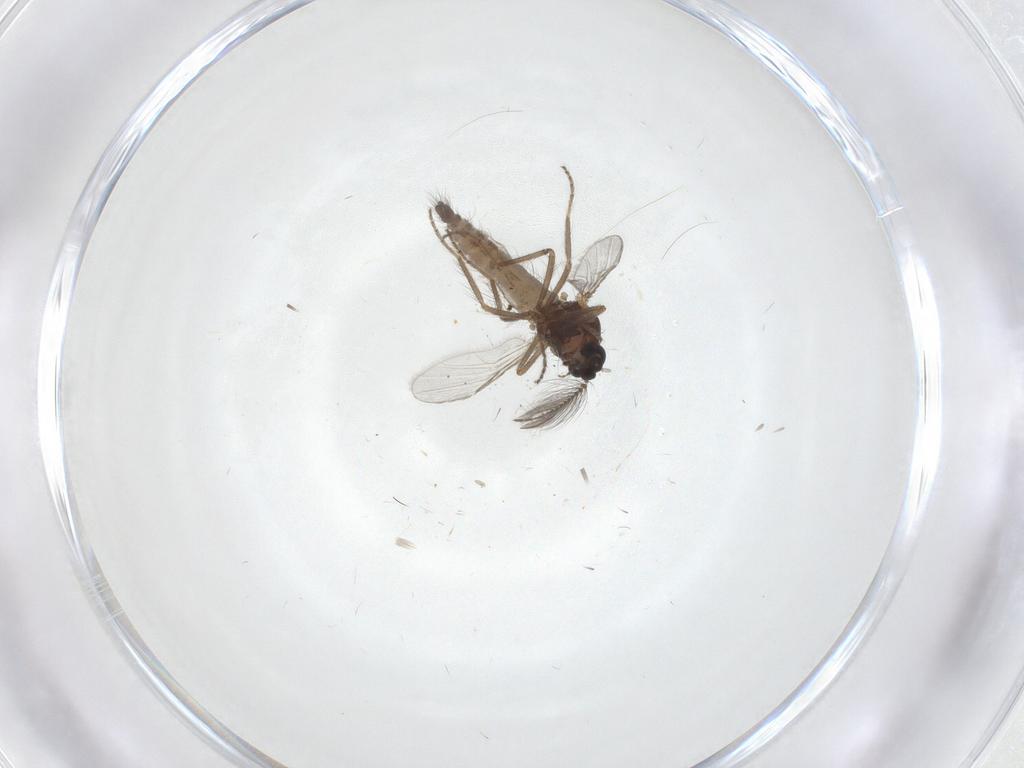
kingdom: Animalia
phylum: Arthropoda
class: Insecta
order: Diptera
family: Ceratopogonidae
